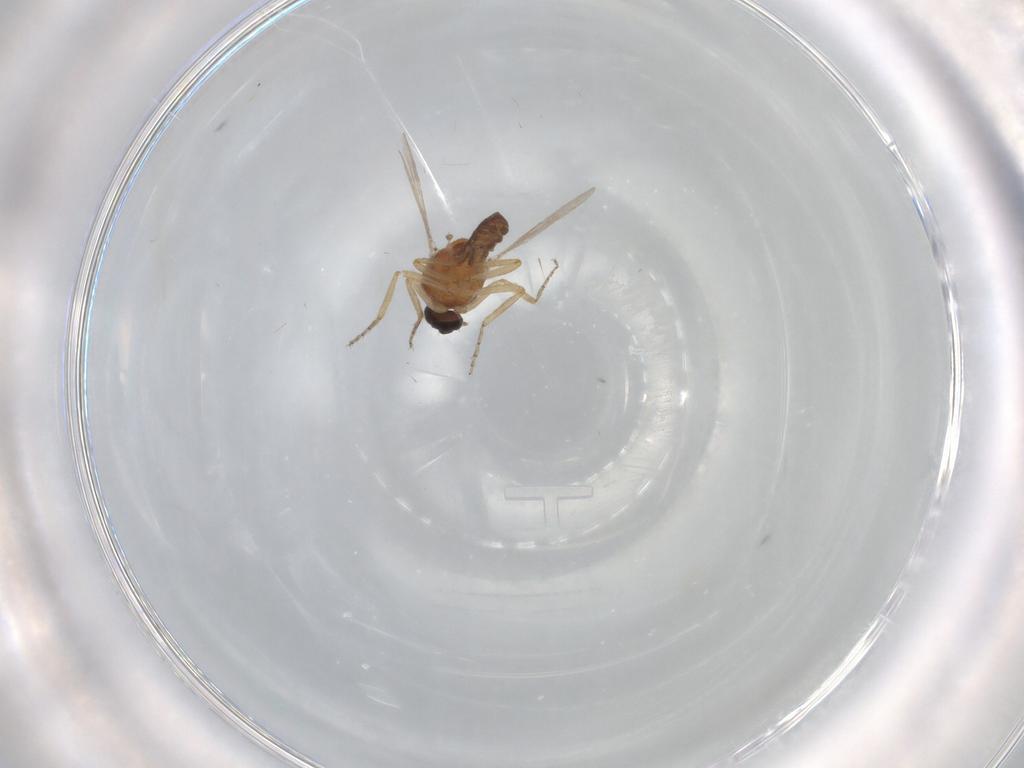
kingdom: Animalia
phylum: Arthropoda
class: Insecta
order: Diptera
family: Ceratopogonidae
